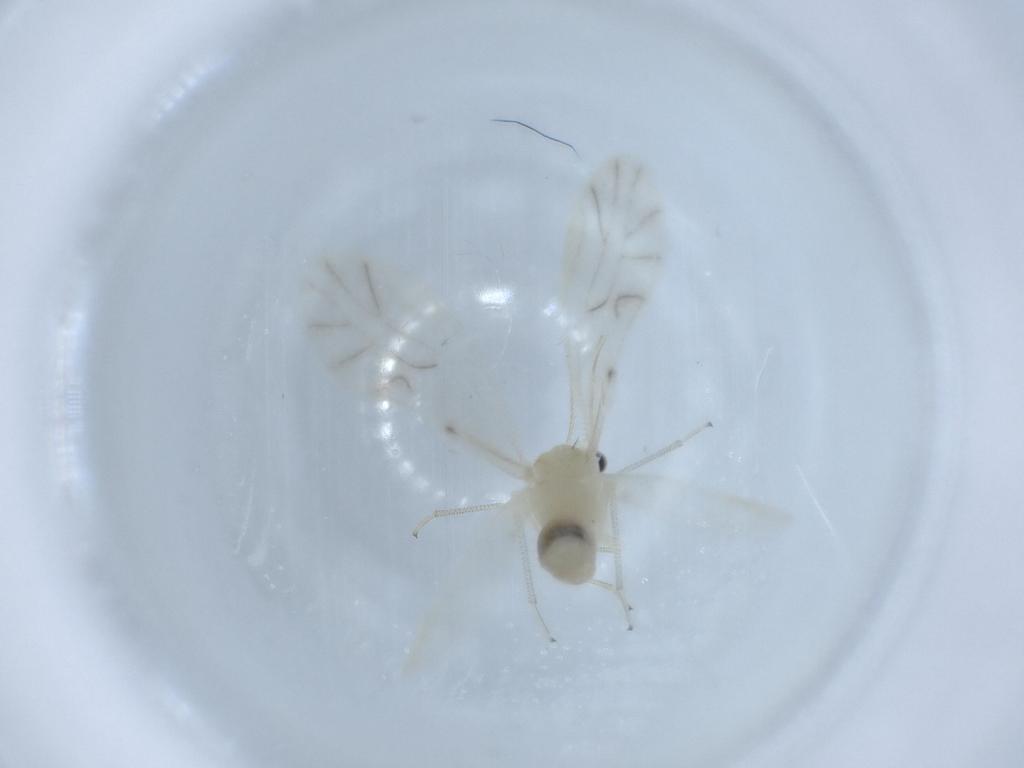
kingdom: Animalia
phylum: Arthropoda
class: Insecta
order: Psocodea
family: Caeciliusidae
